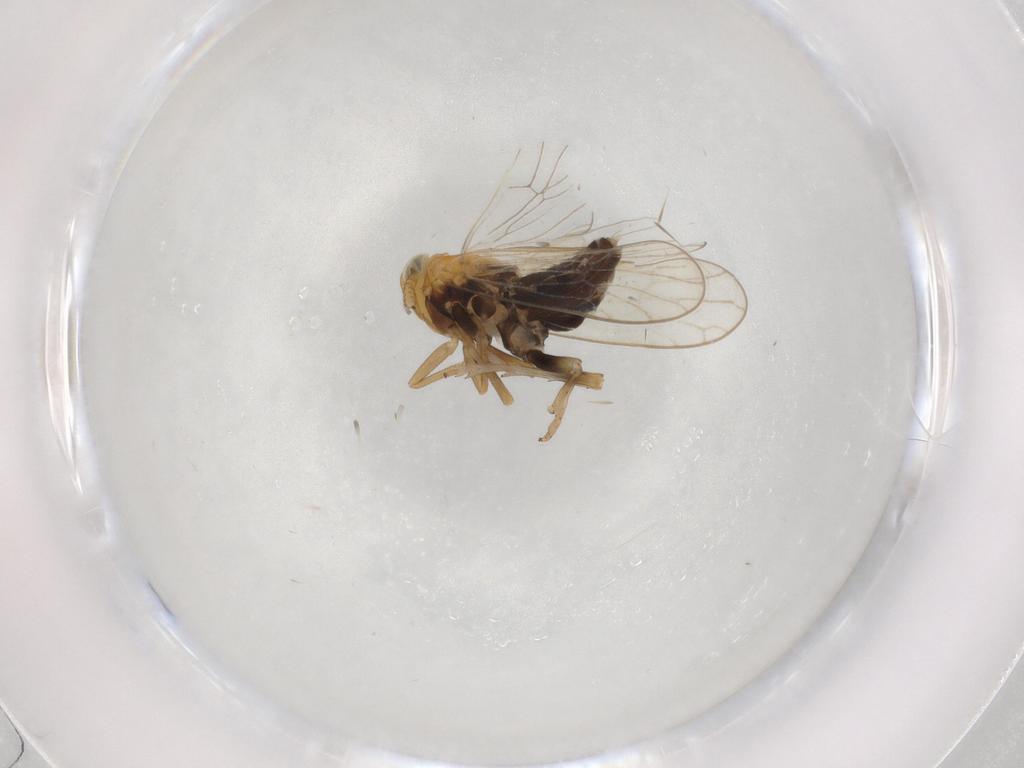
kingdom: Animalia
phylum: Arthropoda
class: Insecta
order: Hemiptera
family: Delphacidae
